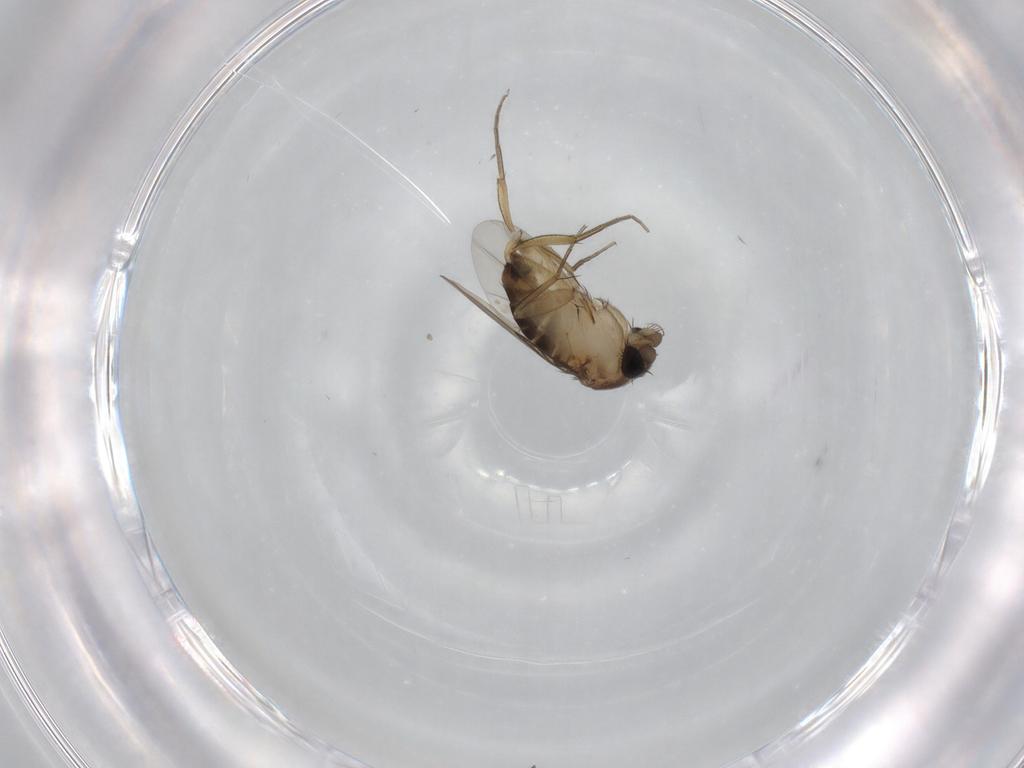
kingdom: Animalia
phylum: Arthropoda
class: Insecta
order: Diptera
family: Phoridae
